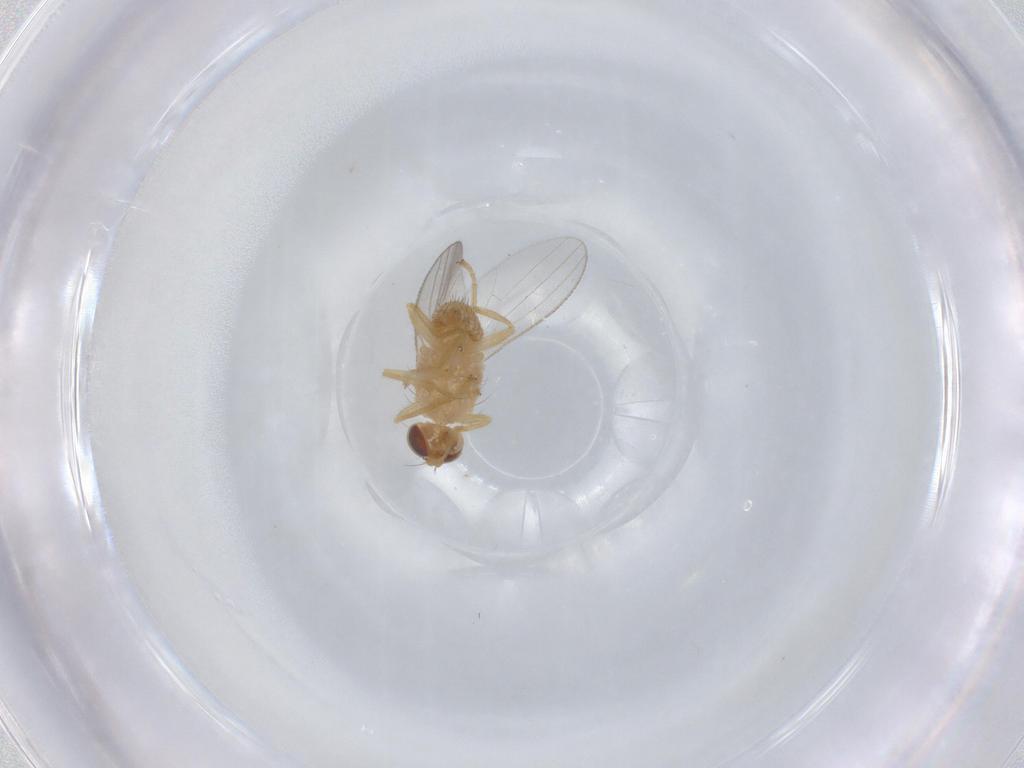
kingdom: Animalia
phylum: Arthropoda
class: Insecta
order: Diptera
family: Chyromyidae
